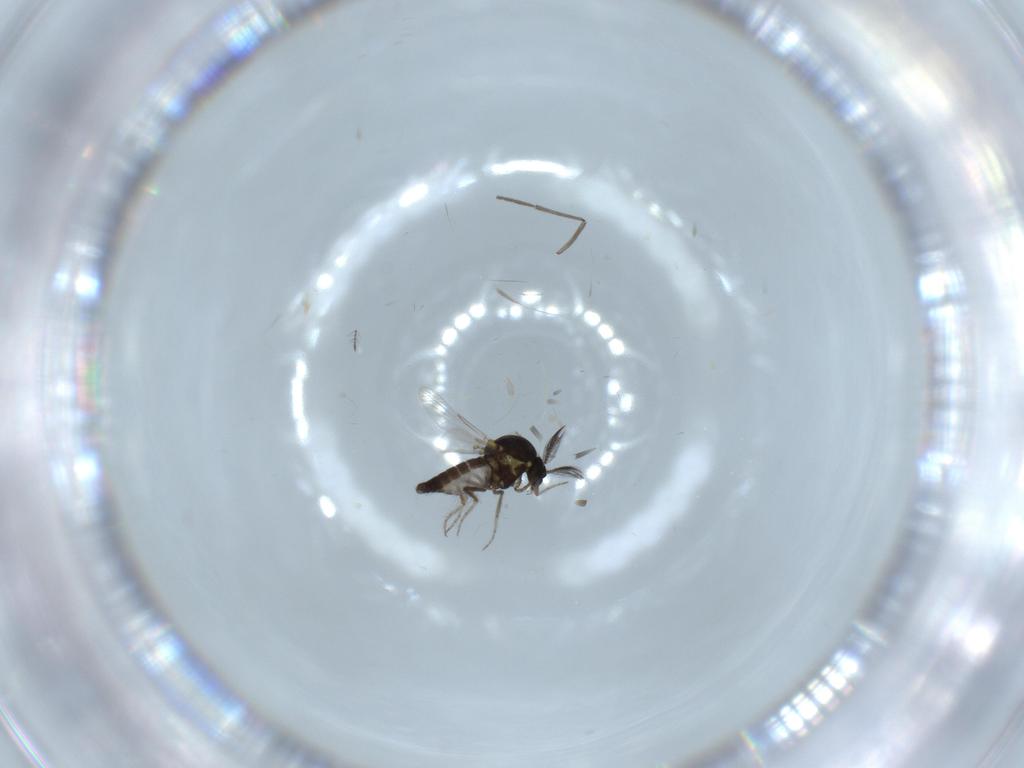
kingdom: Animalia
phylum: Arthropoda
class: Insecta
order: Diptera
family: Sciaridae
